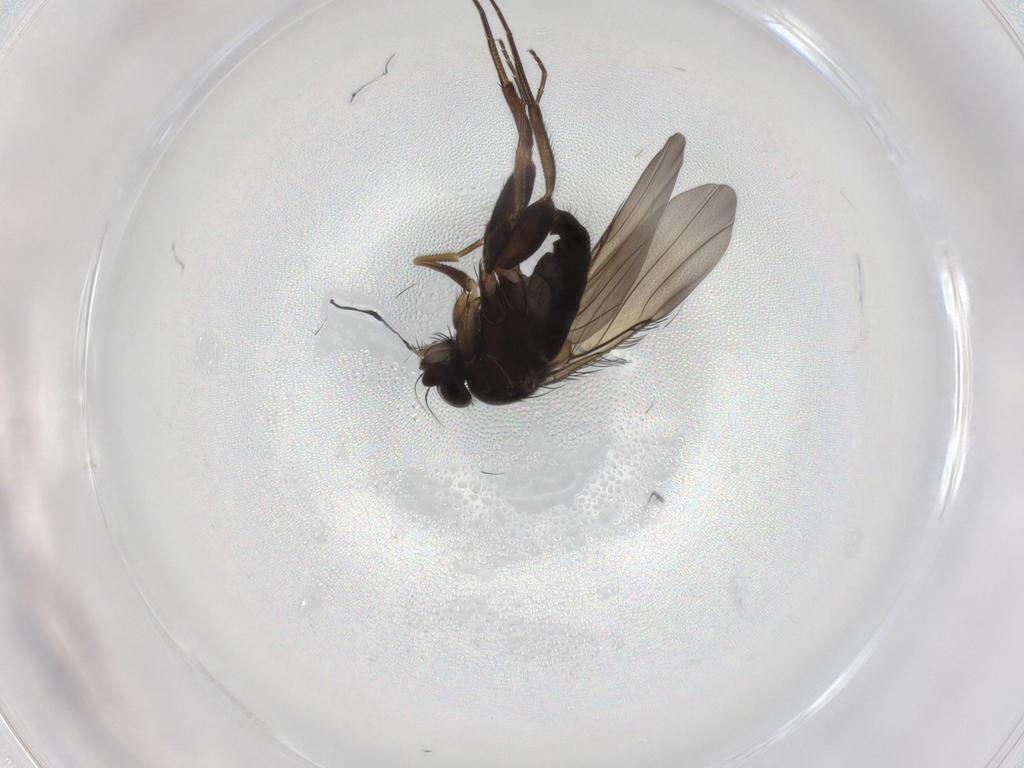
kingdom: Animalia
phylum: Arthropoda
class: Insecta
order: Diptera
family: Phoridae
